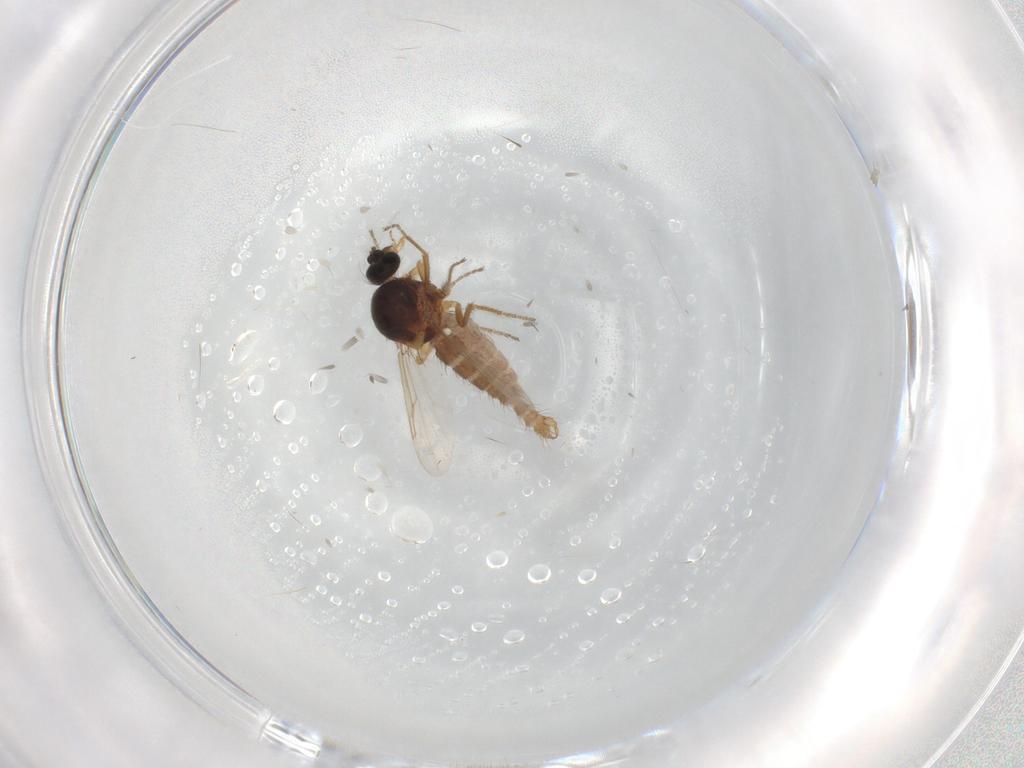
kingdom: Animalia
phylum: Arthropoda
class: Insecta
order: Diptera
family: Ceratopogonidae
